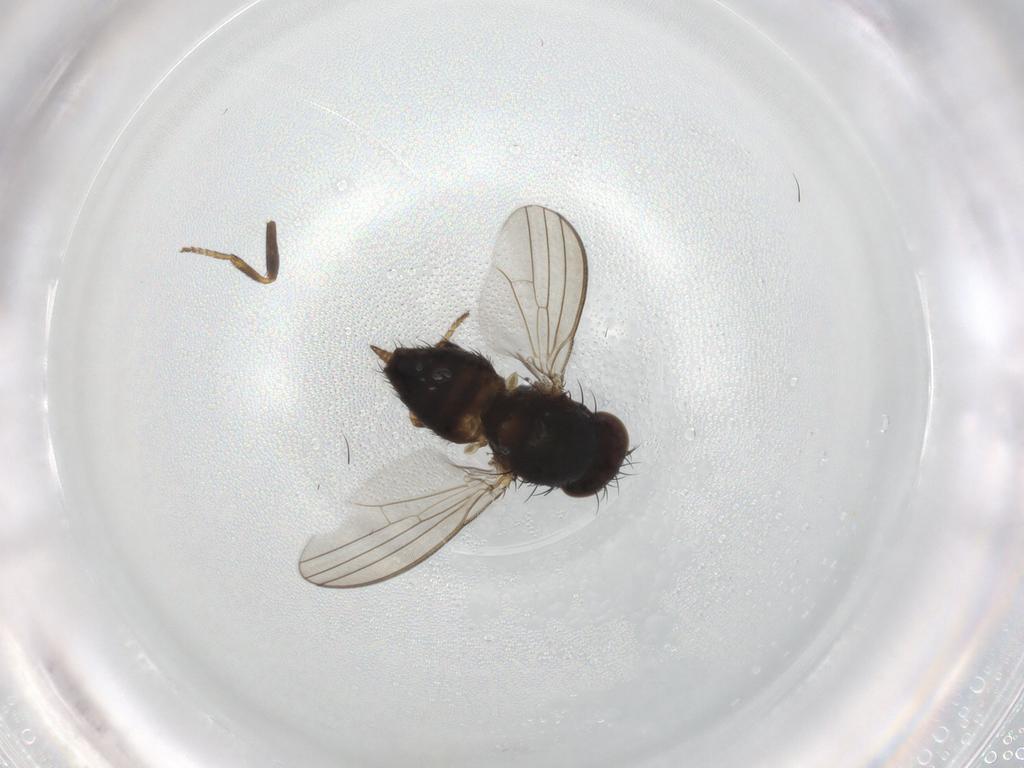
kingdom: Animalia
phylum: Arthropoda
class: Insecta
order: Diptera
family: Milichiidae
